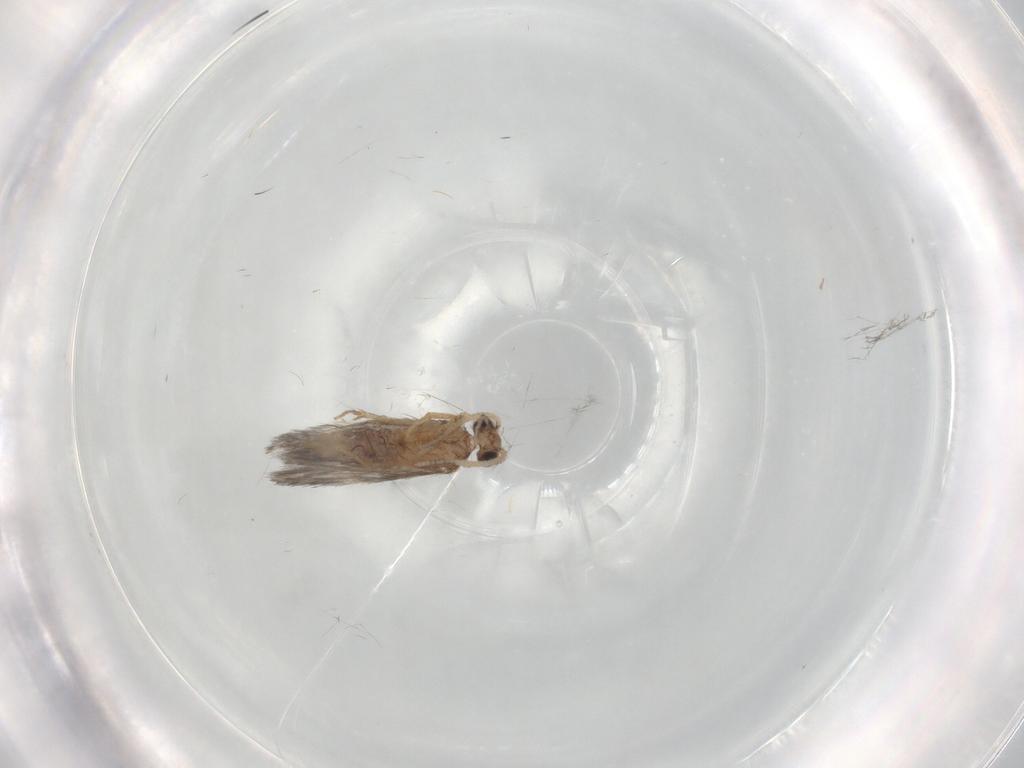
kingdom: Animalia
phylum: Arthropoda
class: Insecta
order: Trichoptera
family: Hydroptilidae
